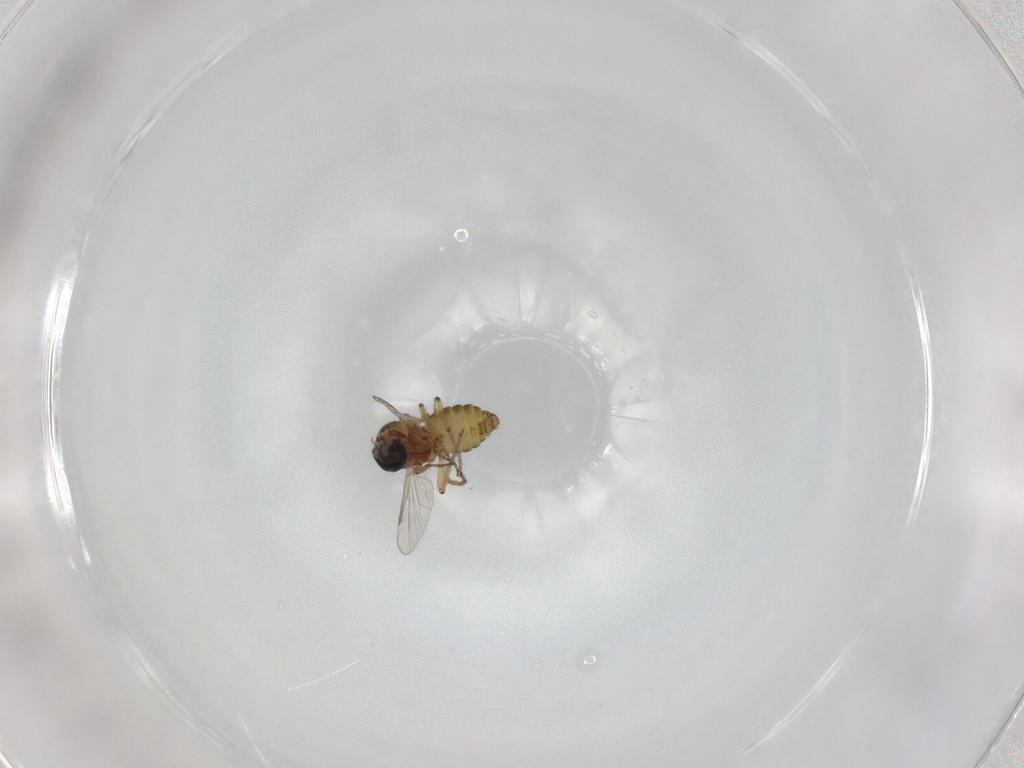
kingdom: Animalia
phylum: Arthropoda
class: Insecta
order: Diptera
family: Ceratopogonidae
